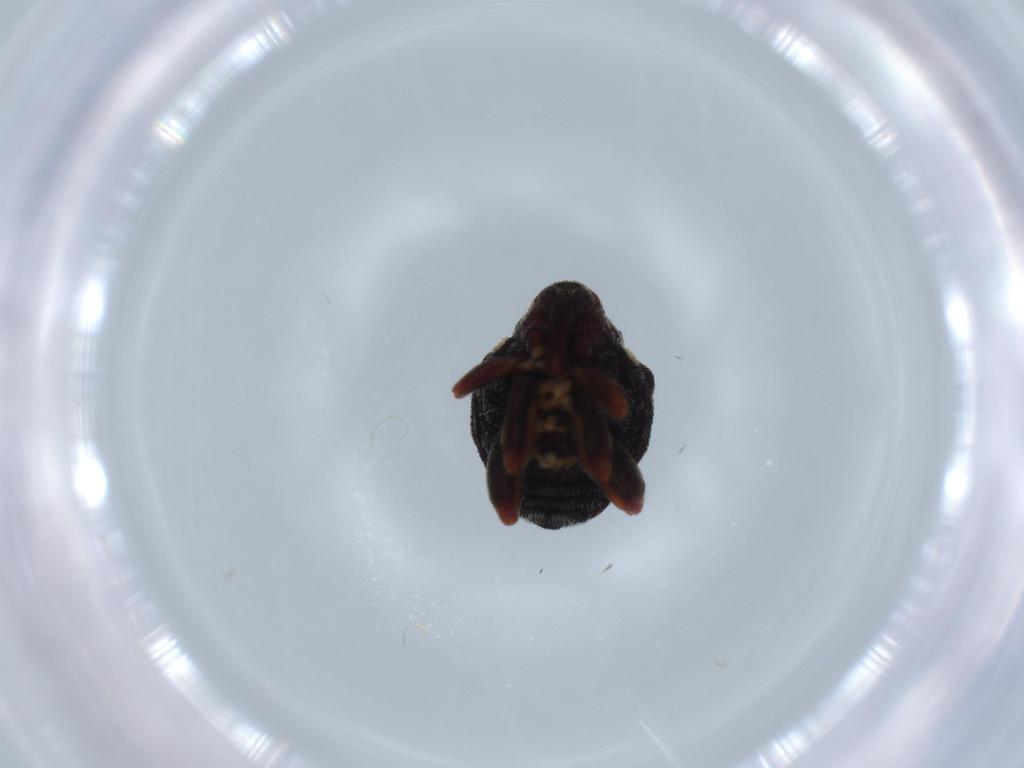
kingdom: Animalia
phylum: Arthropoda
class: Insecta
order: Coleoptera
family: Curculionidae
